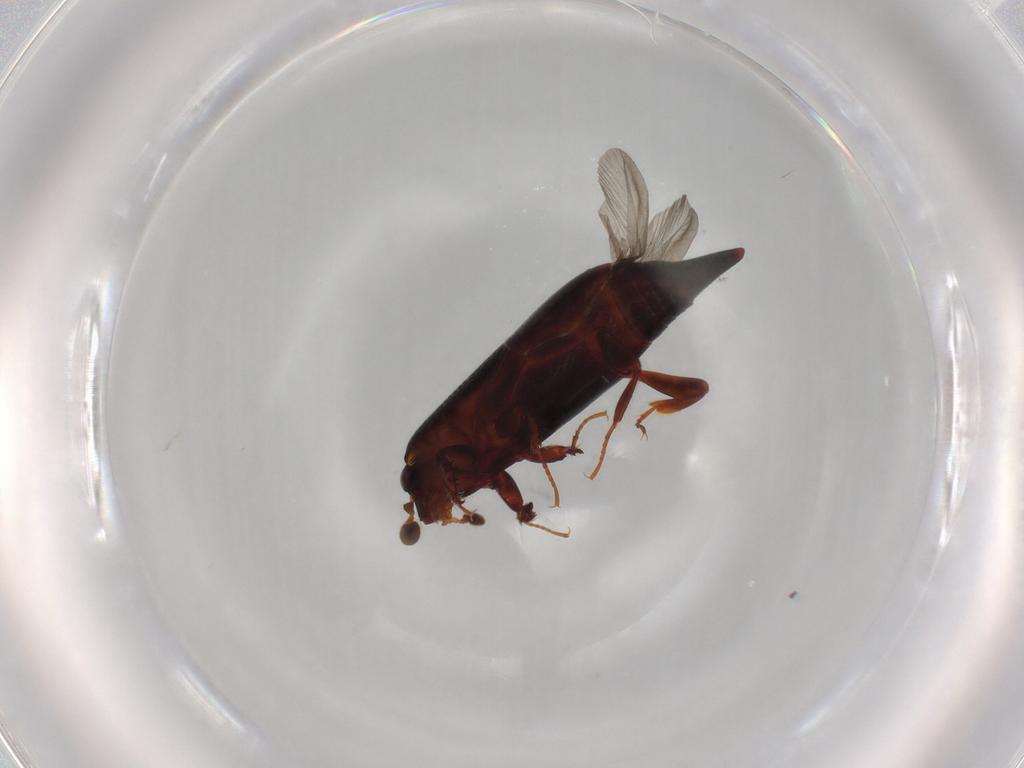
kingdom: Animalia
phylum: Arthropoda
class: Insecta
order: Coleoptera
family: Histeridae
